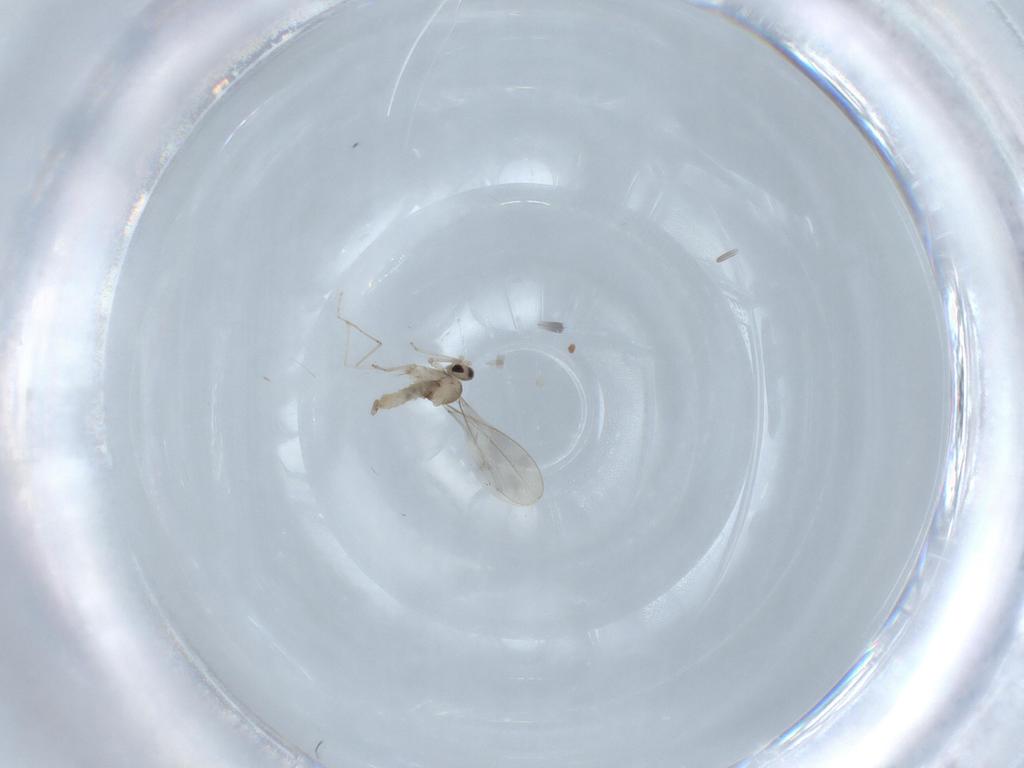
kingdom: Animalia
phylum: Arthropoda
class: Insecta
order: Diptera
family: Cecidomyiidae
